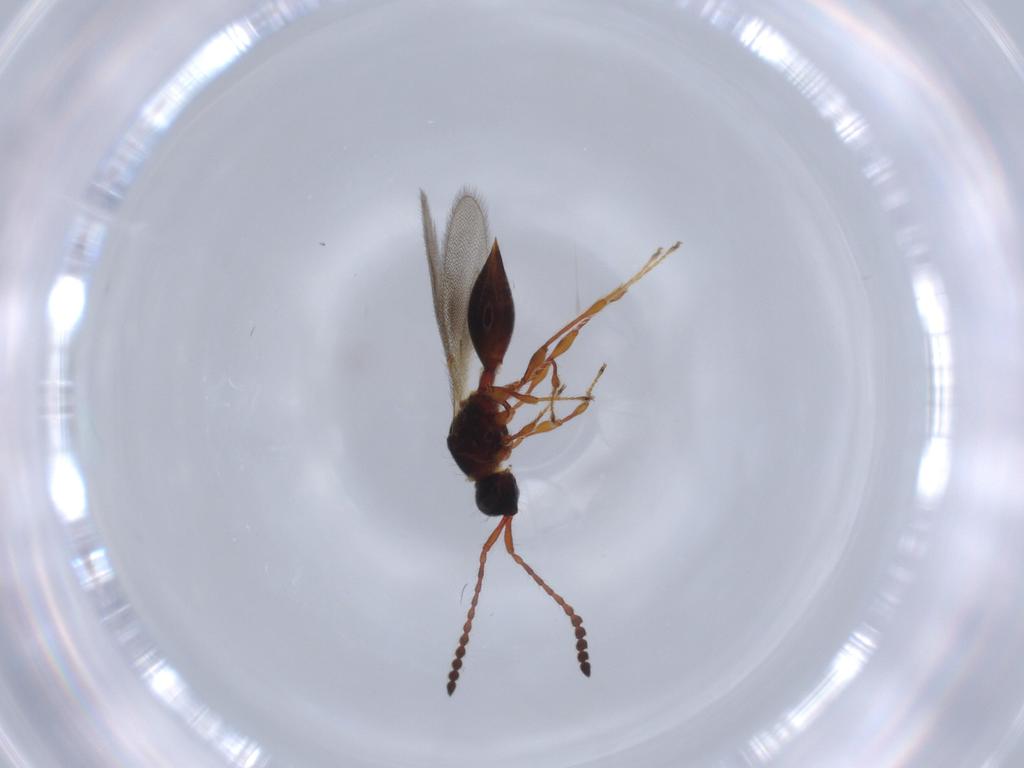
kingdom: Animalia
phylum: Arthropoda
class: Insecta
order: Hymenoptera
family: Diapriidae
